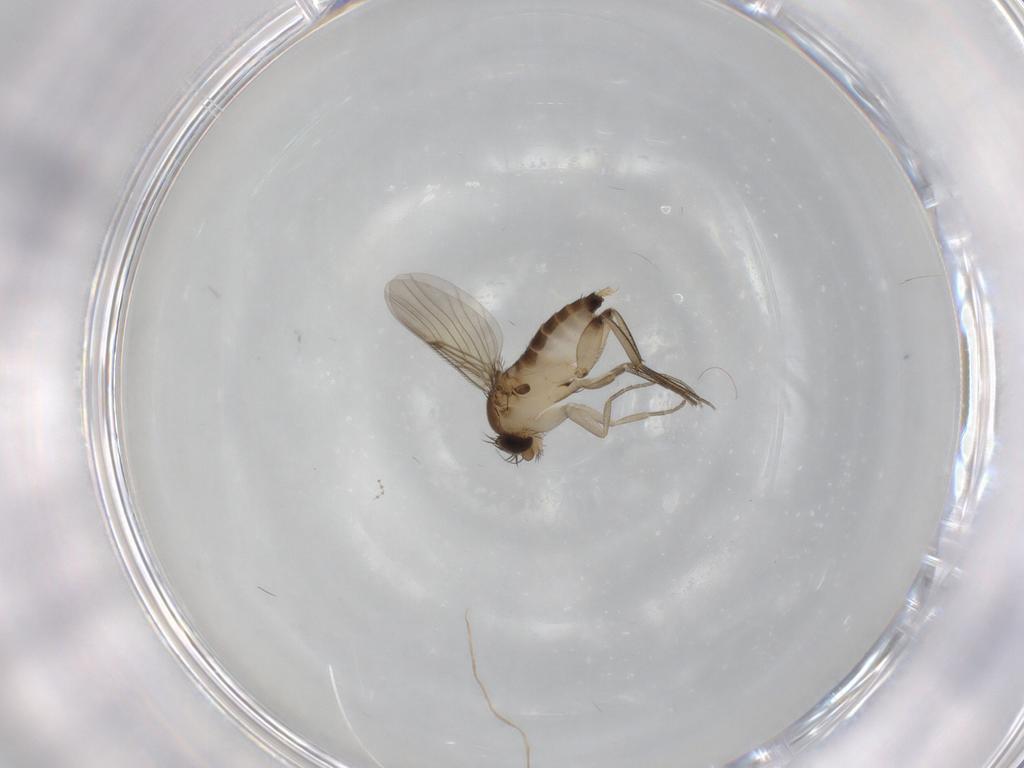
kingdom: Animalia
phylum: Arthropoda
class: Insecta
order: Diptera
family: Phoridae
